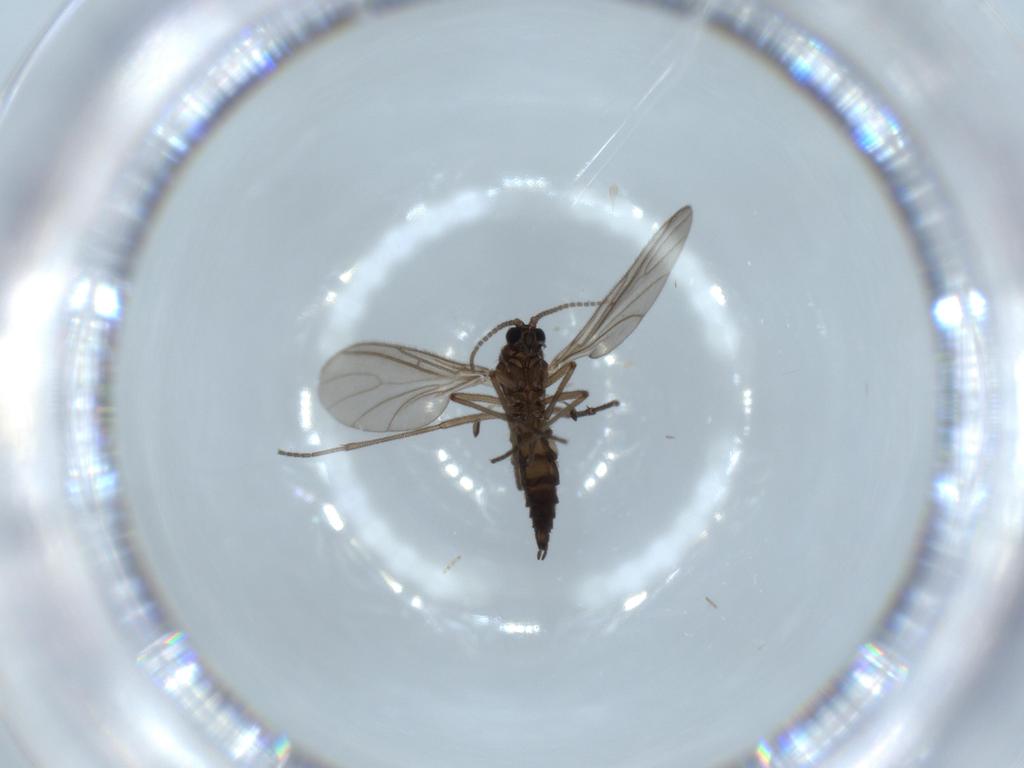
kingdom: Animalia
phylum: Arthropoda
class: Insecta
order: Diptera
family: Sciaridae
